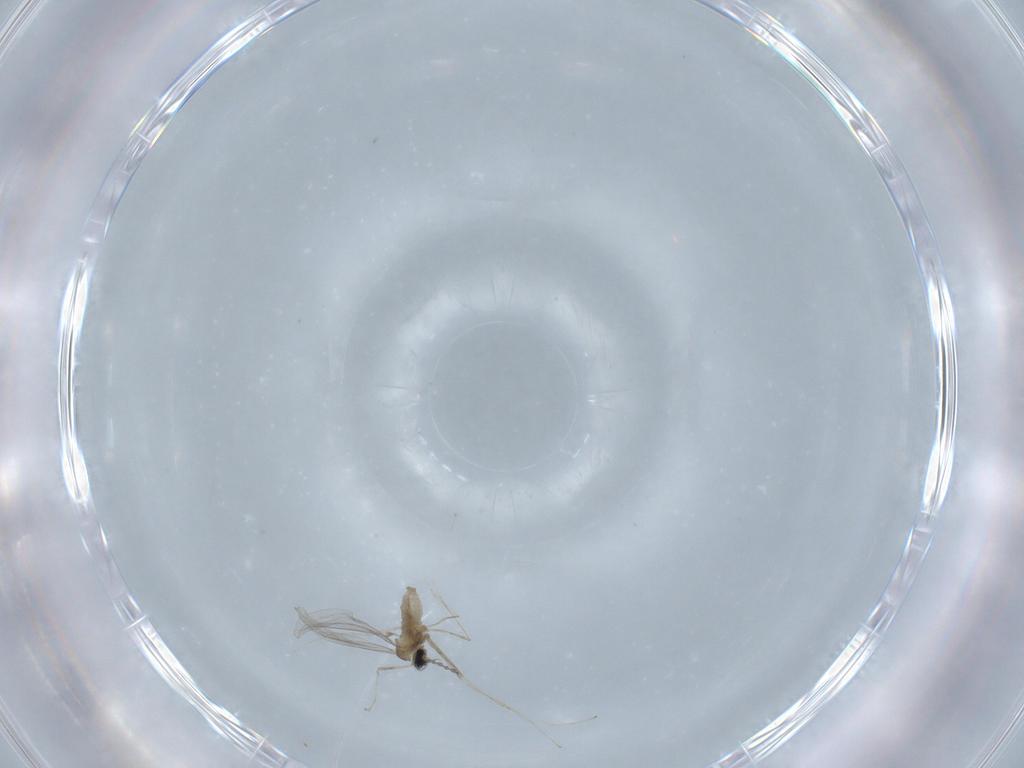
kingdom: Animalia
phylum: Arthropoda
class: Insecta
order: Diptera
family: Cecidomyiidae
